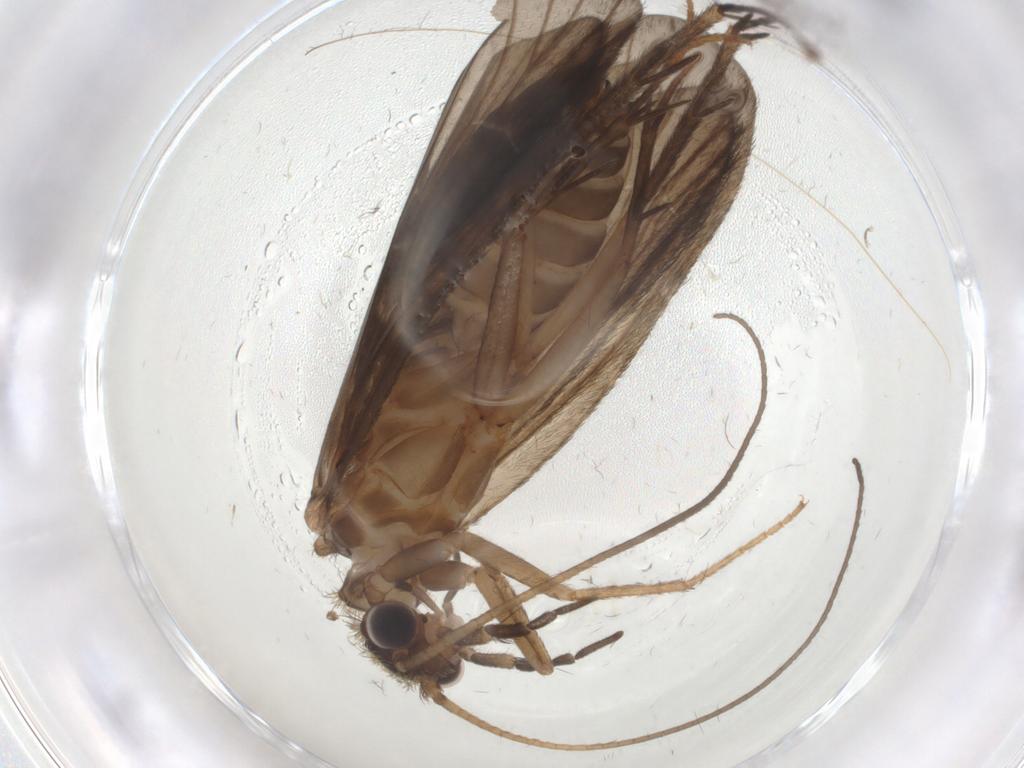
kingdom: Animalia
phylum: Arthropoda
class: Insecta
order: Trichoptera
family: Philopotamidae
